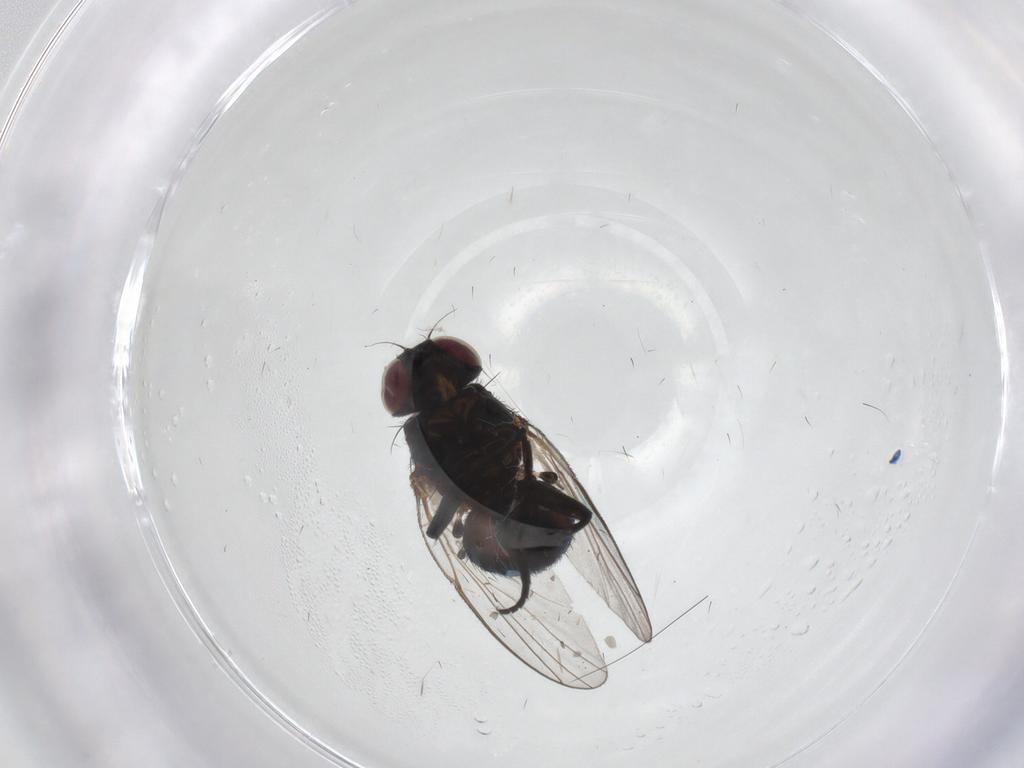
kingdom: Animalia
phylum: Arthropoda
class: Insecta
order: Diptera
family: Agromyzidae
